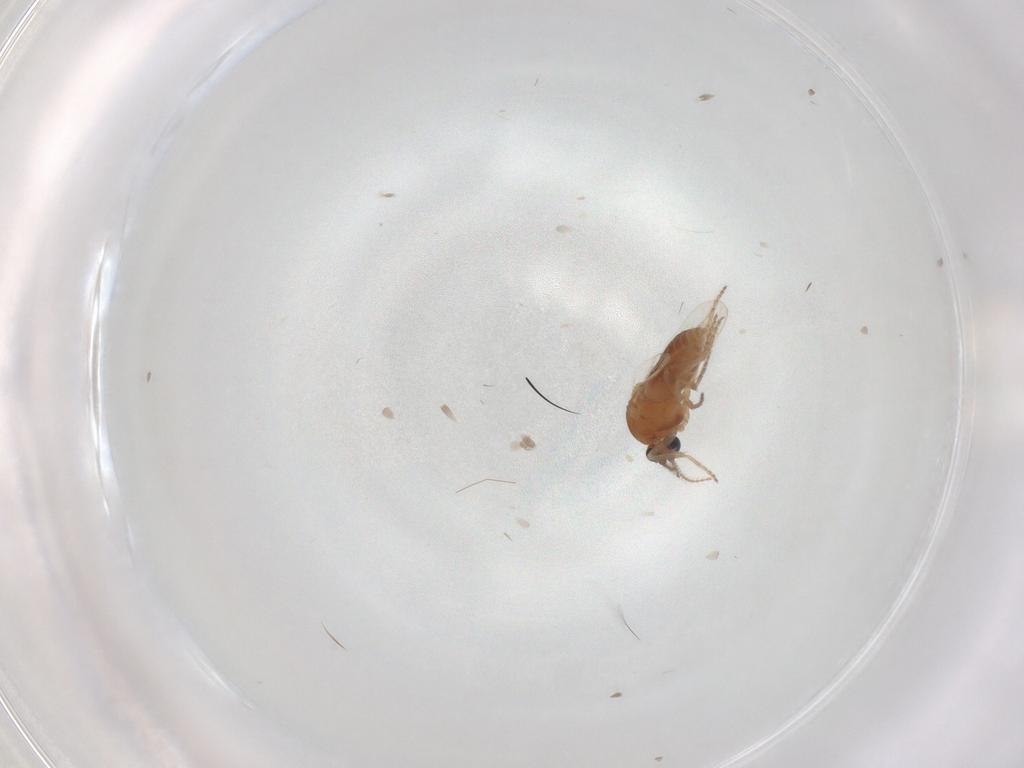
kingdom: Animalia
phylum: Arthropoda
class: Insecta
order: Diptera
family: Ceratopogonidae
